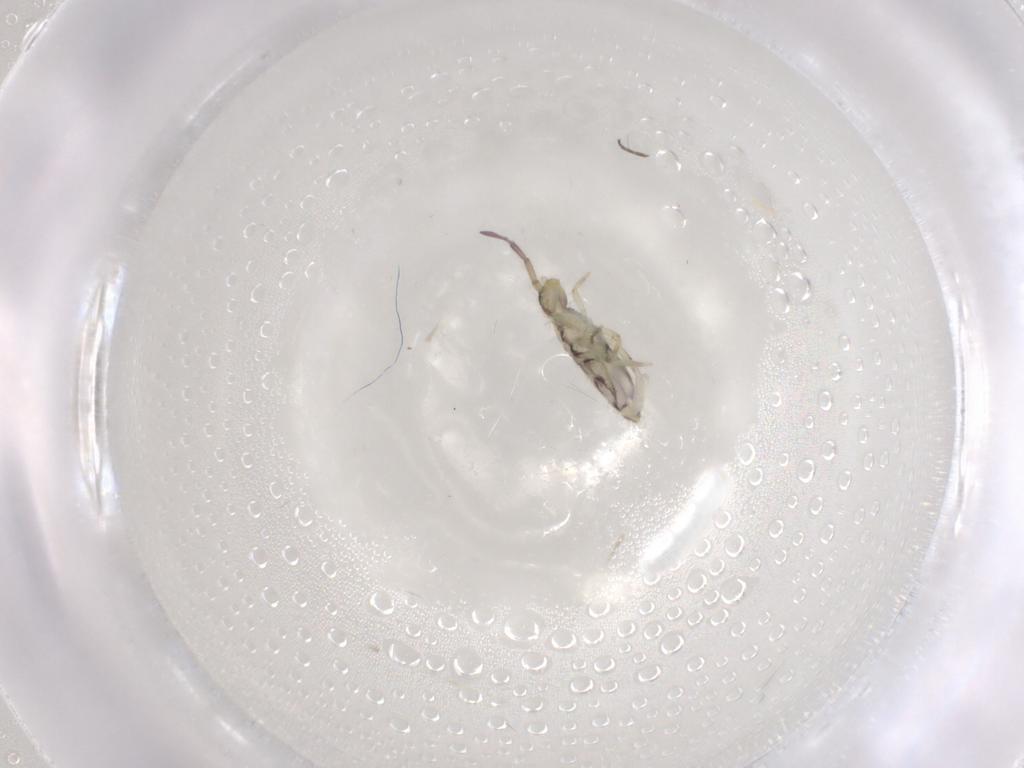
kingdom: Animalia
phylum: Arthropoda
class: Collembola
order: Entomobryomorpha
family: Entomobryidae
